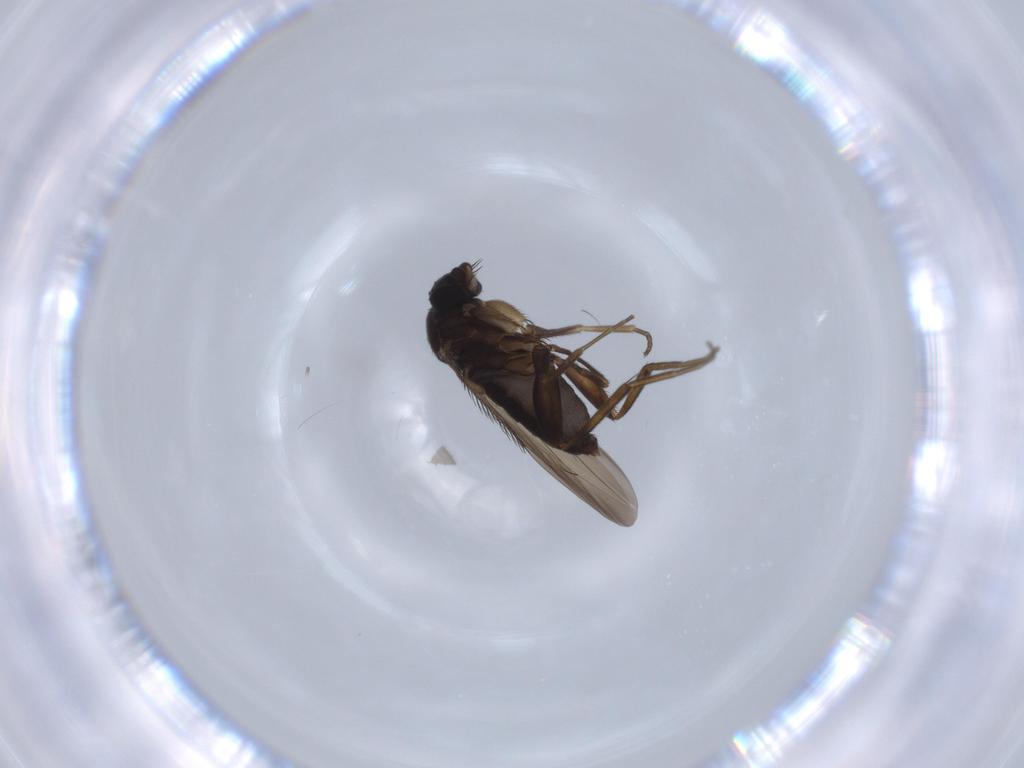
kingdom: Animalia
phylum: Arthropoda
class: Insecta
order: Diptera
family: Phoridae
